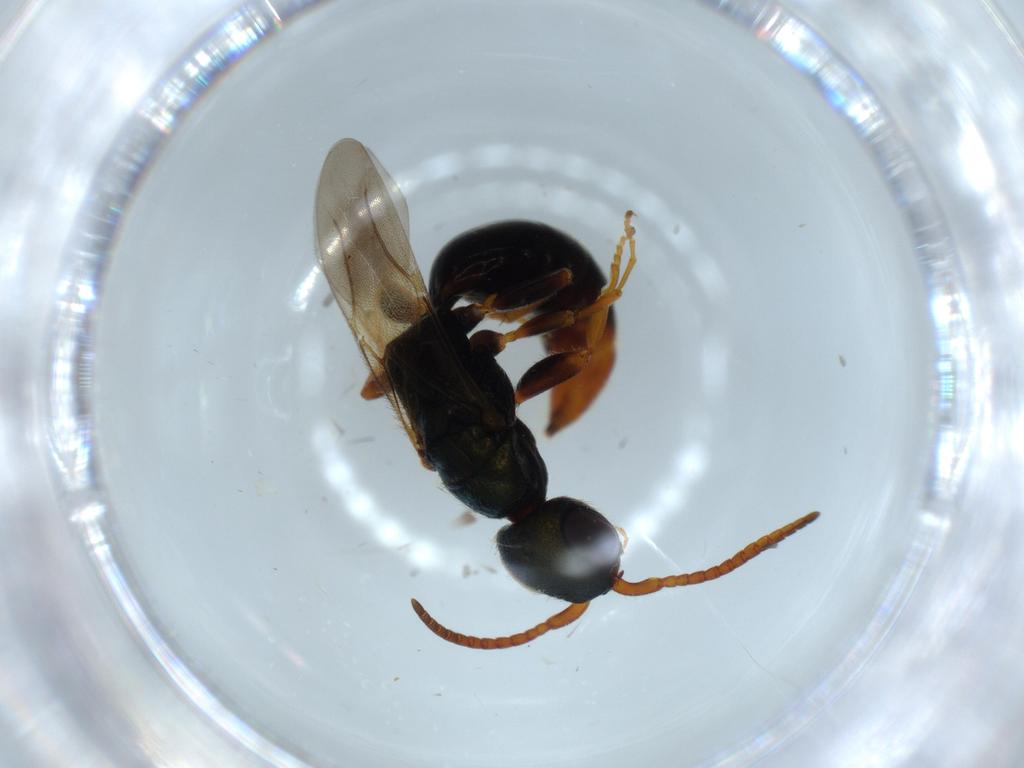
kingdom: Animalia
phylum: Arthropoda
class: Insecta
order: Hymenoptera
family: Bethylidae
